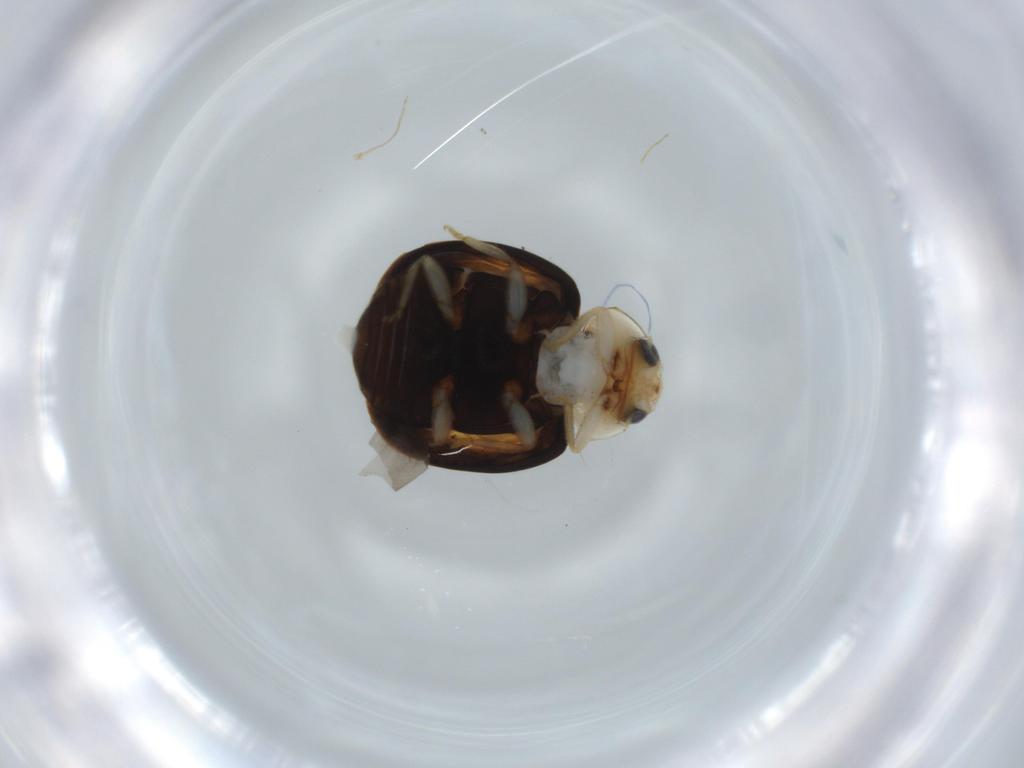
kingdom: Animalia
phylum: Arthropoda
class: Insecta
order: Coleoptera
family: Coccinellidae
